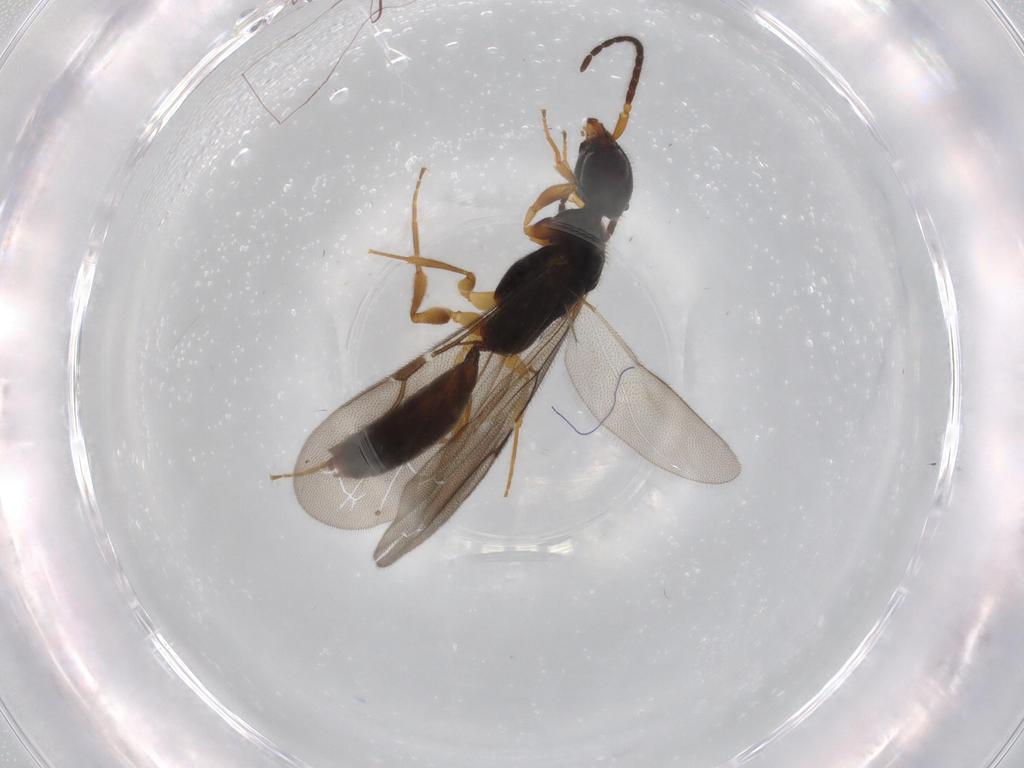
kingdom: Animalia
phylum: Arthropoda
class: Insecta
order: Hymenoptera
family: Bethylidae
